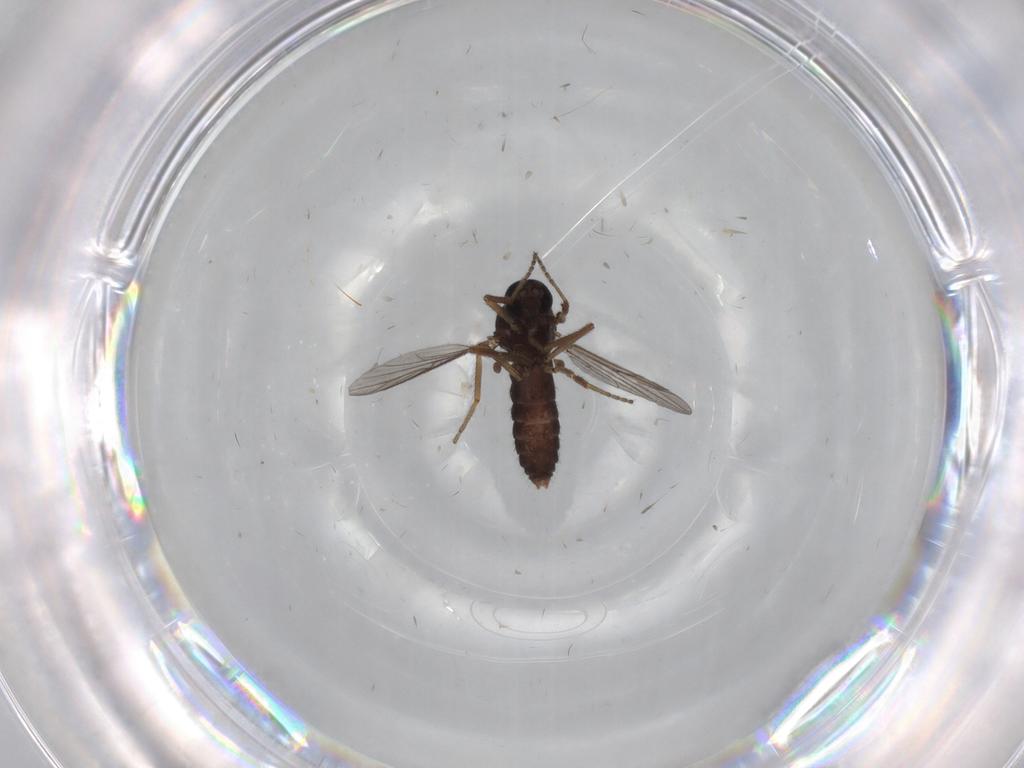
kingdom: Animalia
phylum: Arthropoda
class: Insecta
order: Diptera
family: Ceratopogonidae
